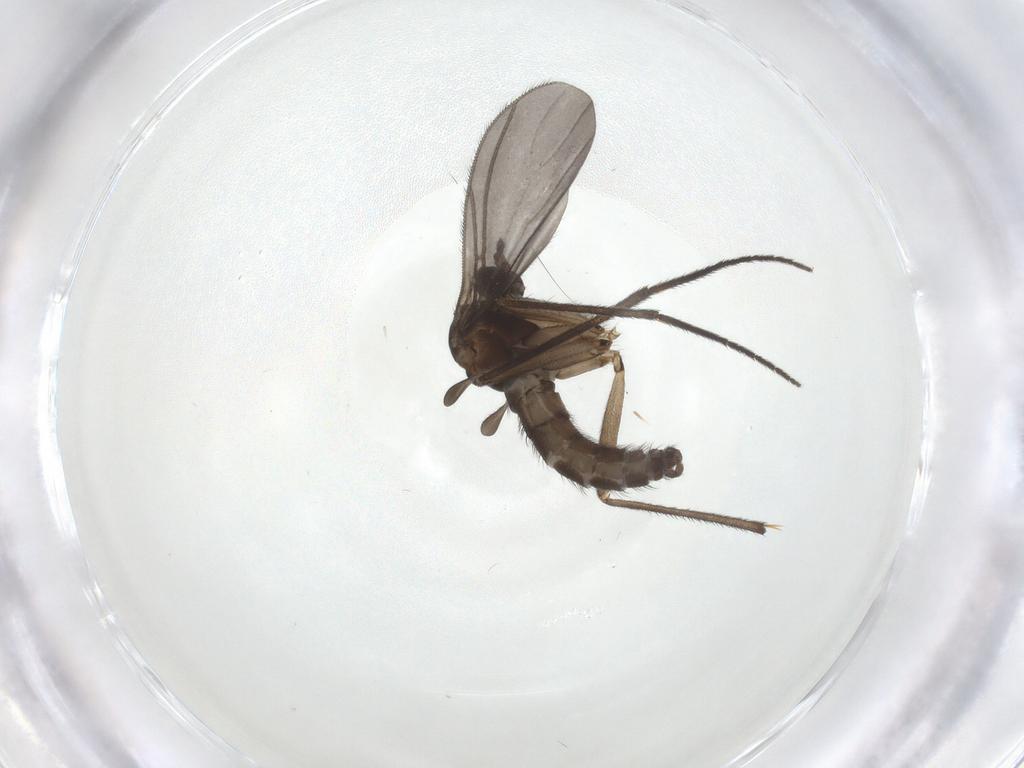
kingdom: Animalia
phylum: Arthropoda
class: Insecta
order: Diptera
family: Sciaridae
